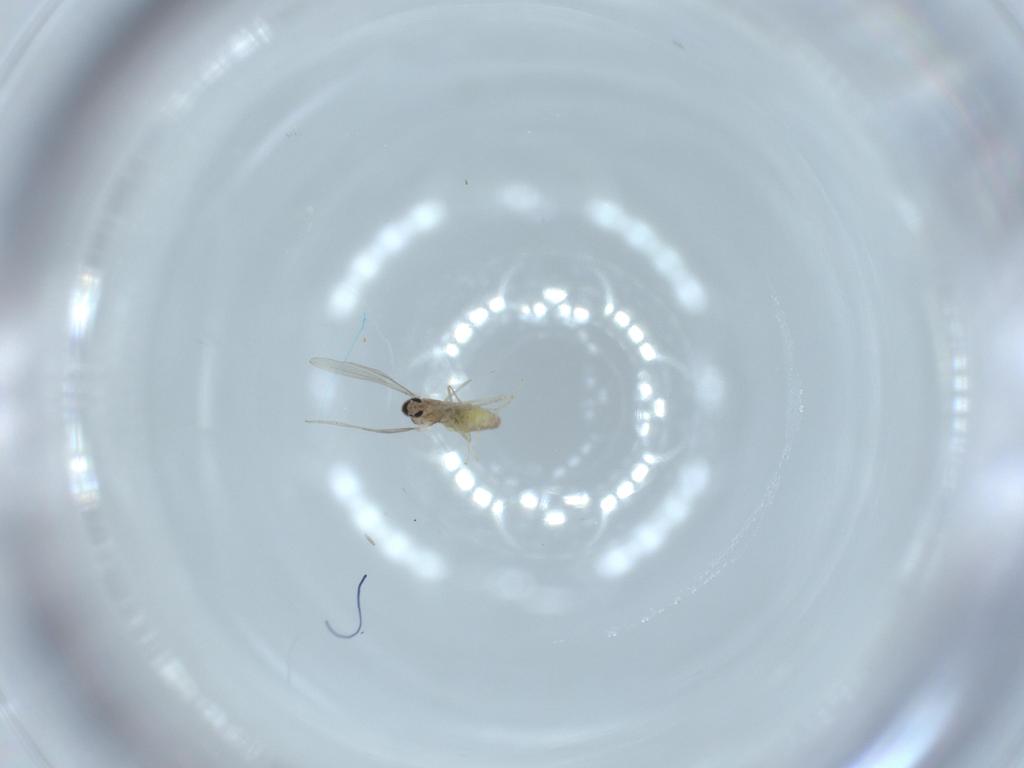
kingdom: Animalia
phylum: Arthropoda
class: Insecta
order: Diptera
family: Cecidomyiidae
